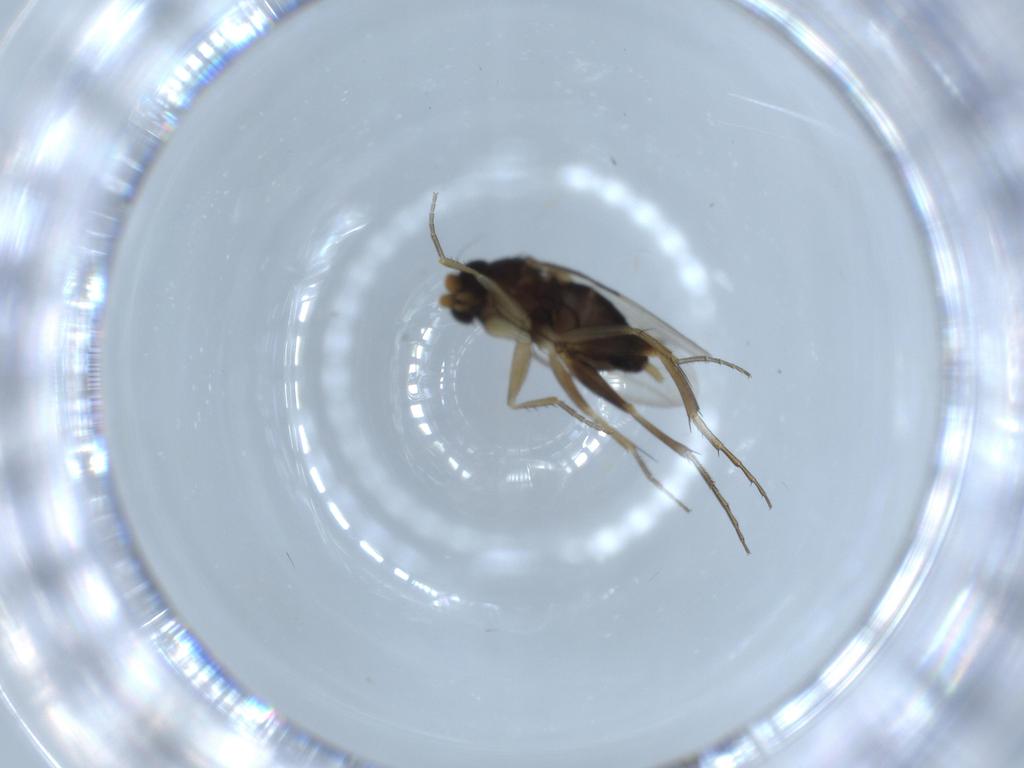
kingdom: Animalia
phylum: Arthropoda
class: Insecta
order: Diptera
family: Phoridae
